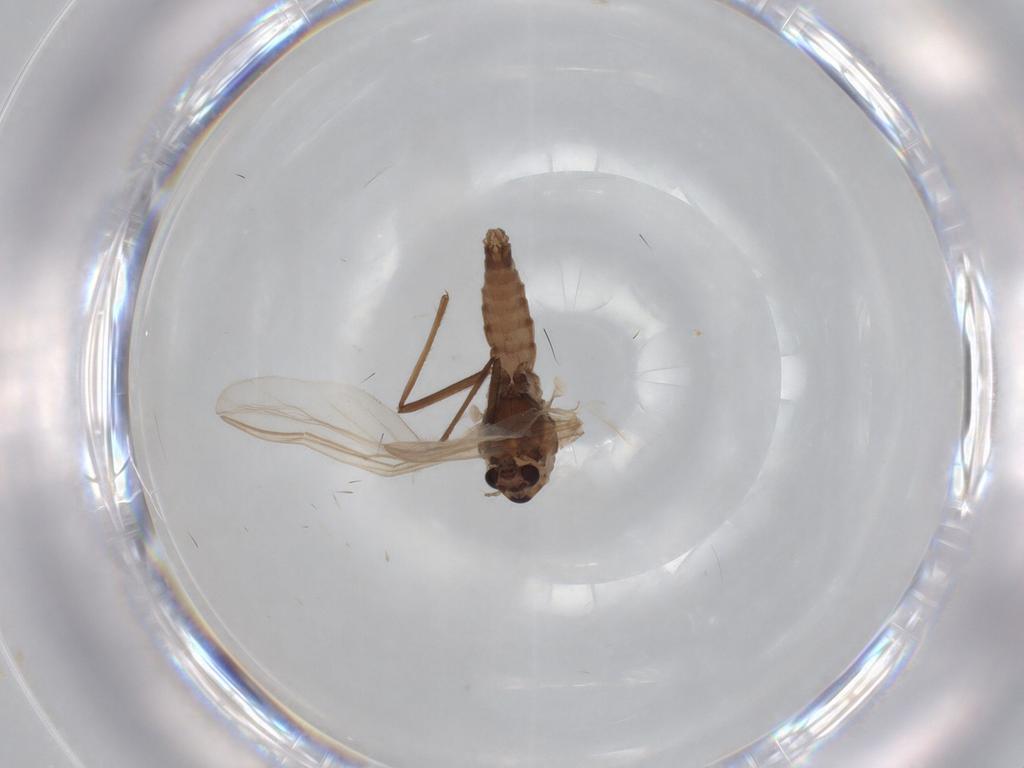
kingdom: Animalia
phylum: Arthropoda
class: Insecta
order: Diptera
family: Chironomidae
